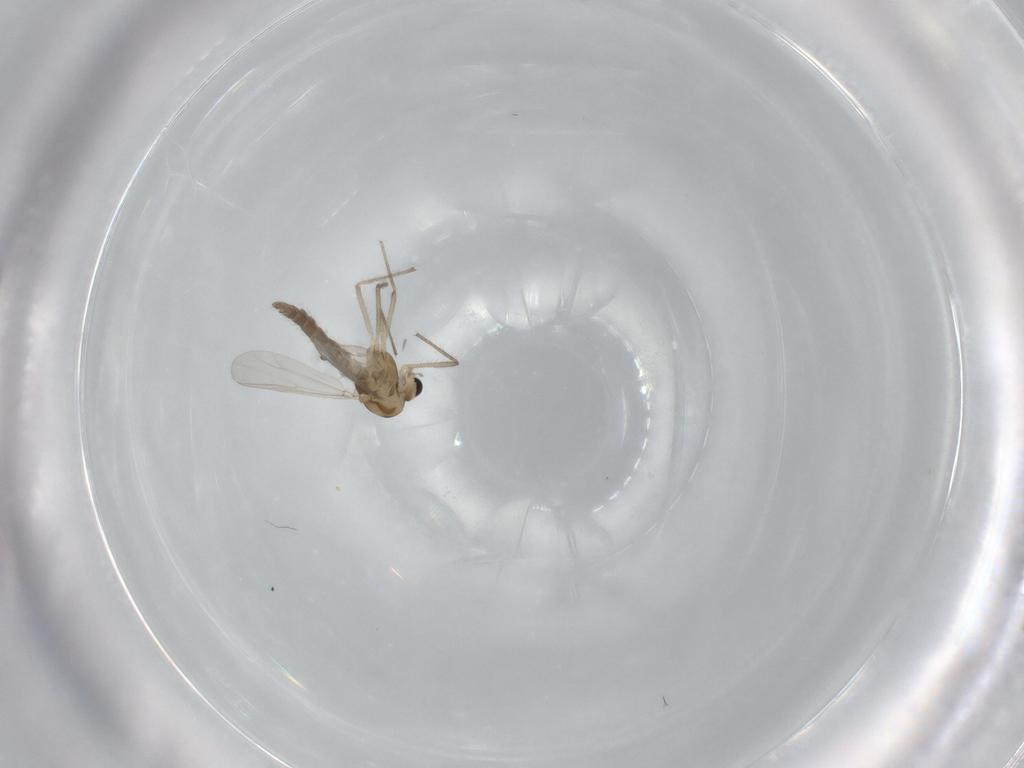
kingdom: Animalia
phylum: Arthropoda
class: Insecta
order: Diptera
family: Chironomidae
